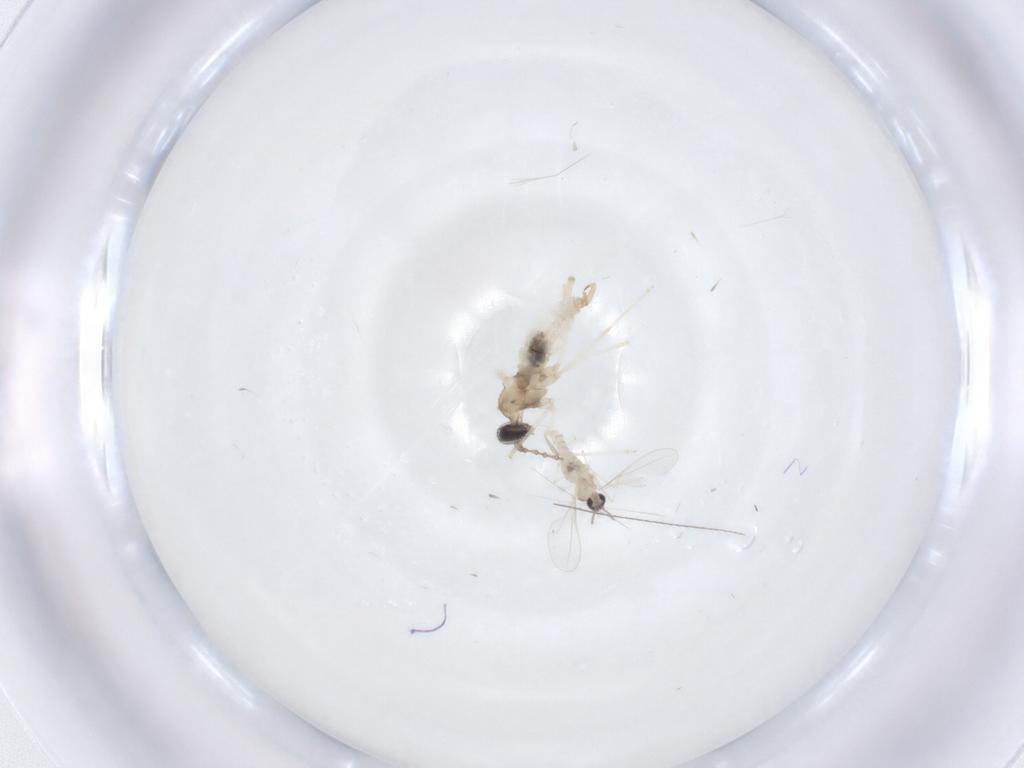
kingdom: Animalia
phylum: Arthropoda
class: Insecta
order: Diptera
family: Cecidomyiidae
